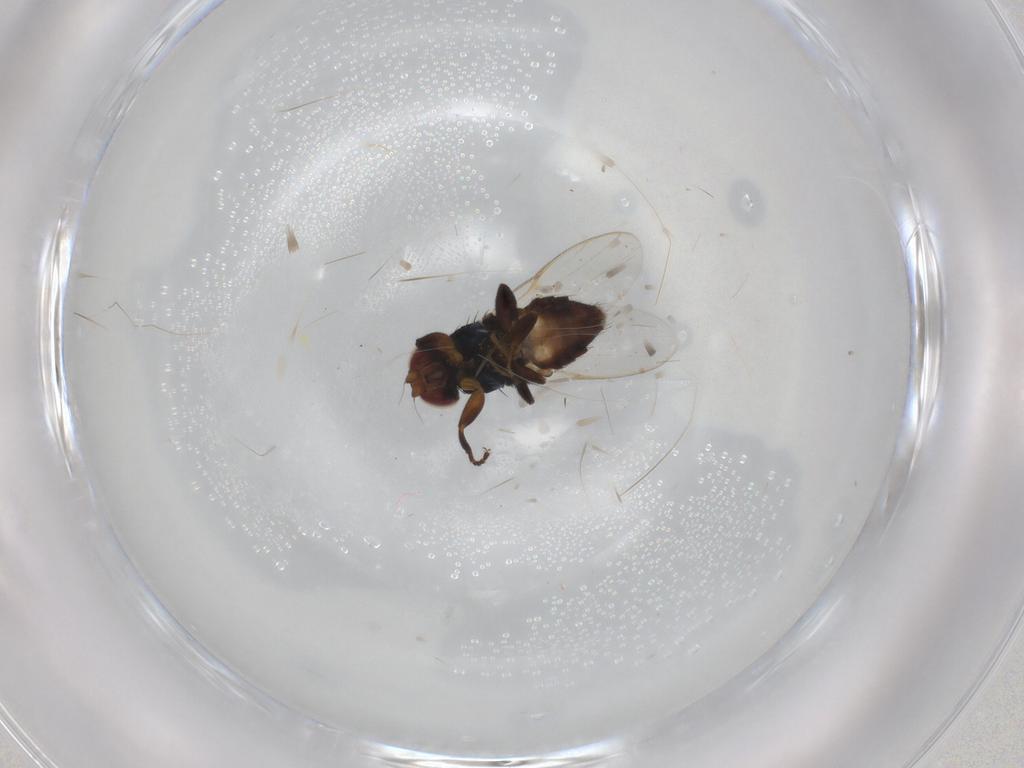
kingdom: Animalia
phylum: Arthropoda
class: Insecta
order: Diptera
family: Chloropidae
